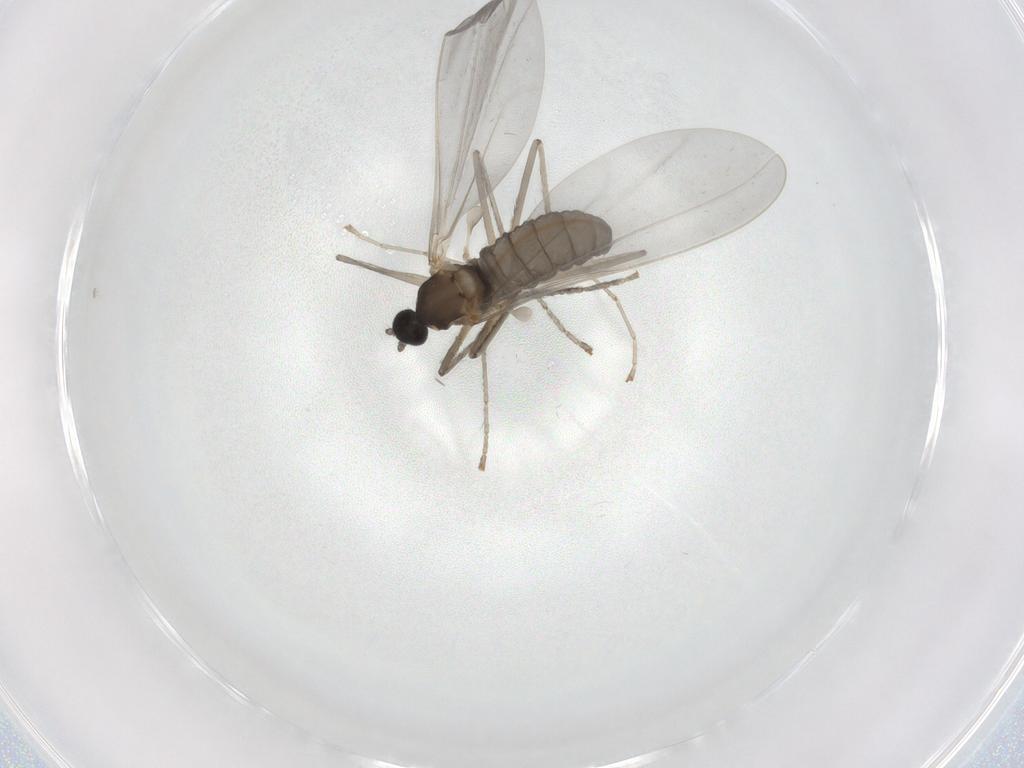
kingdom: Animalia
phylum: Arthropoda
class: Insecta
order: Diptera
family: Cecidomyiidae
